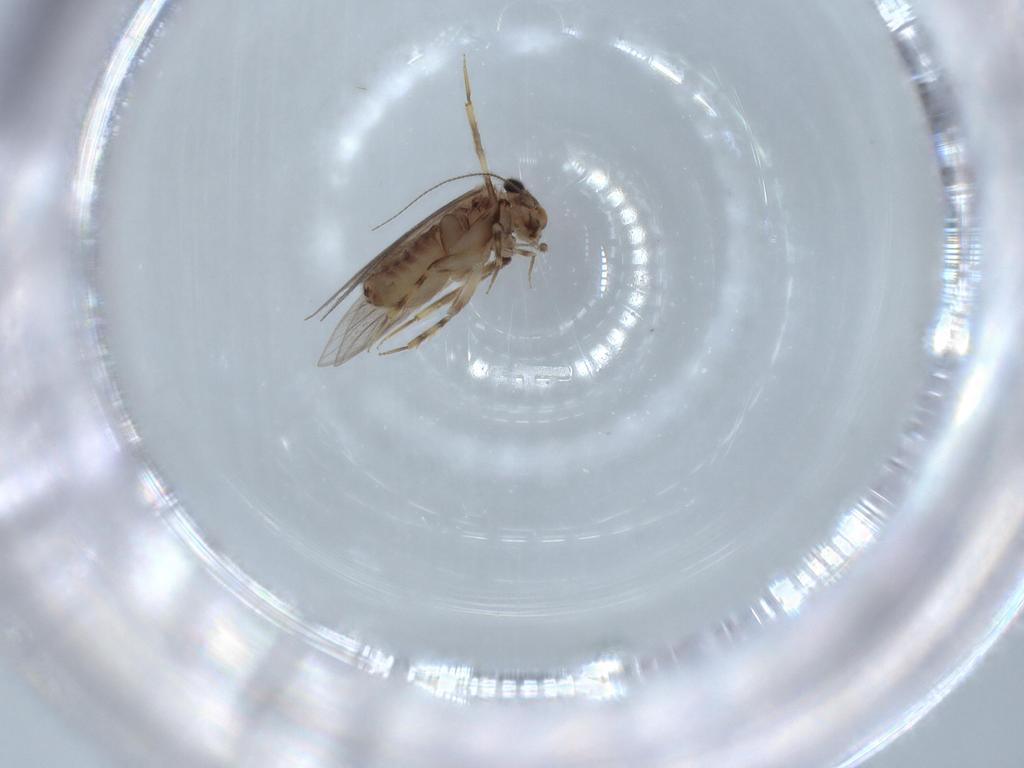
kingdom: Animalia
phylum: Arthropoda
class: Insecta
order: Psocodea
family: Lepidopsocidae
